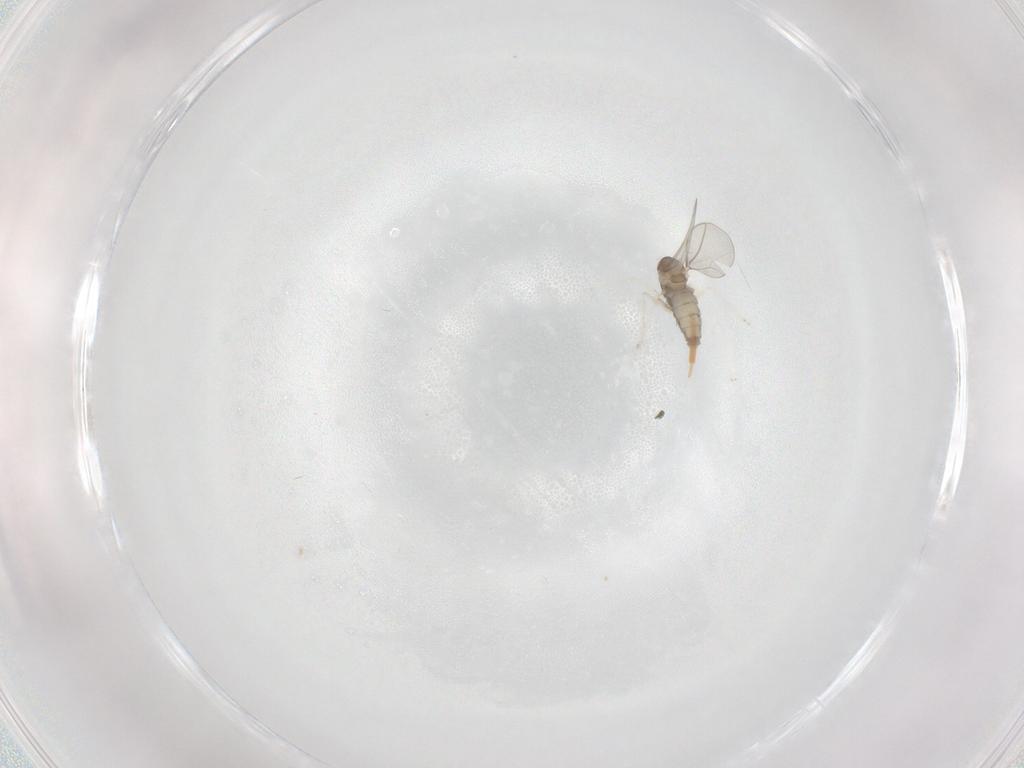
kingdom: Animalia
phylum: Arthropoda
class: Insecta
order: Diptera
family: Cecidomyiidae
